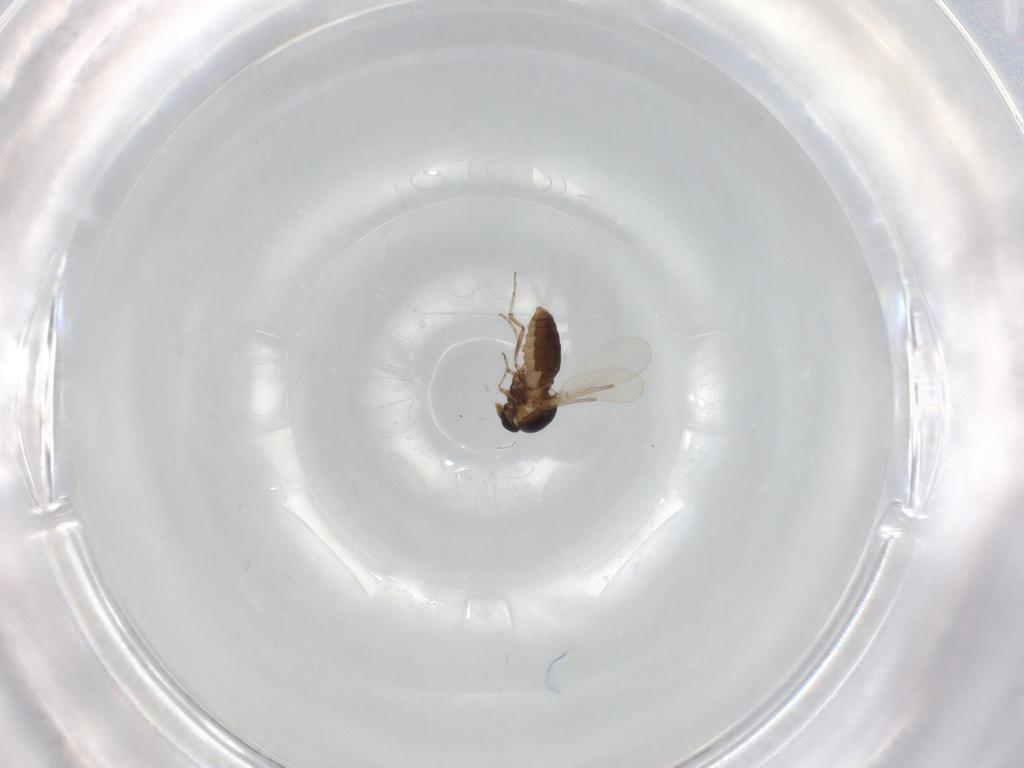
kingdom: Animalia
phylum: Arthropoda
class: Insecta
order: Diptera
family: Ceratopogonidae
